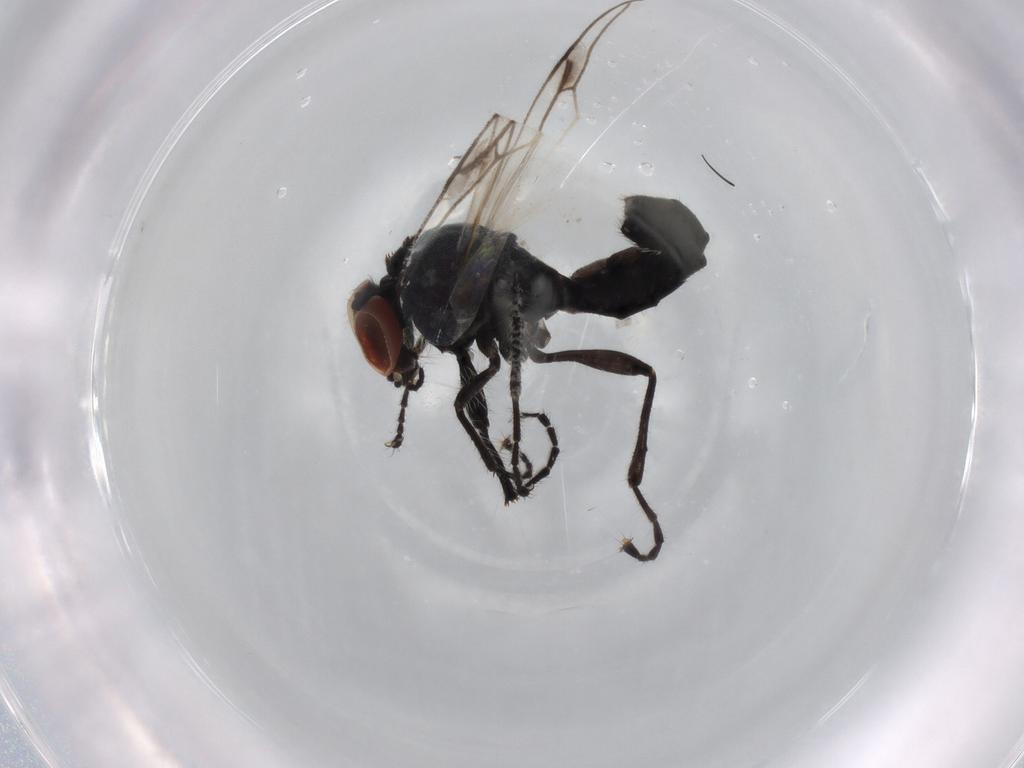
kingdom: Animalia
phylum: Arthropoda
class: Insecta
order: Diptera
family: Bibionidae
